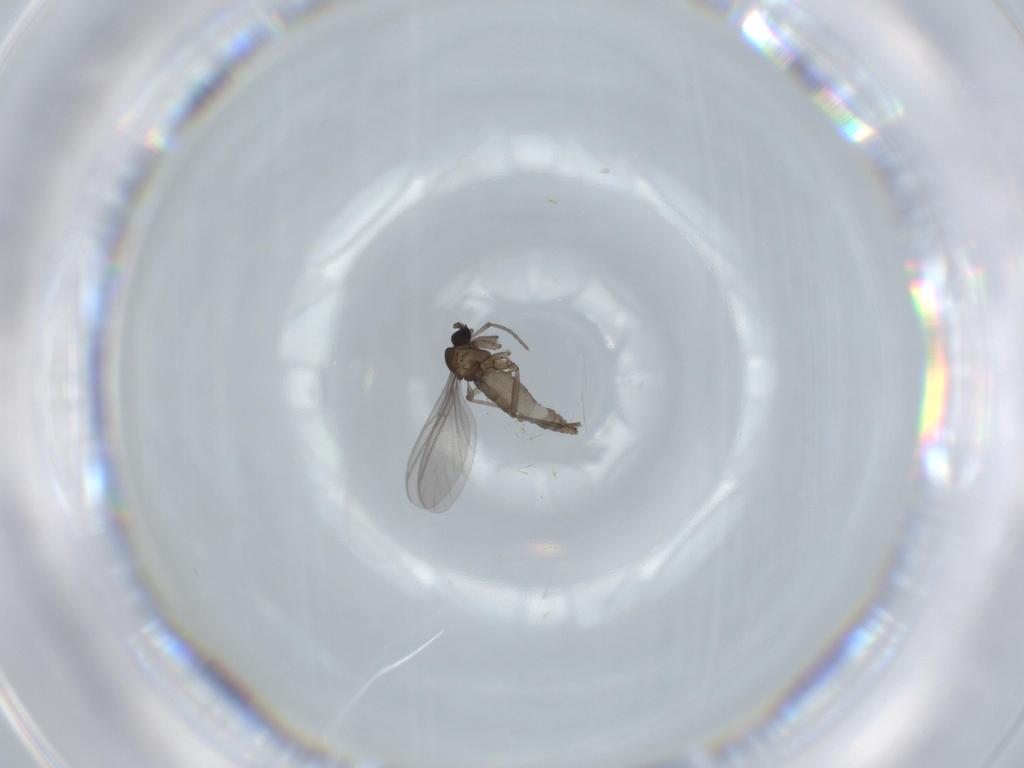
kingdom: Animalia
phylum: Arthropoda
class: Insecta
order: Diptera
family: Sciaridae
